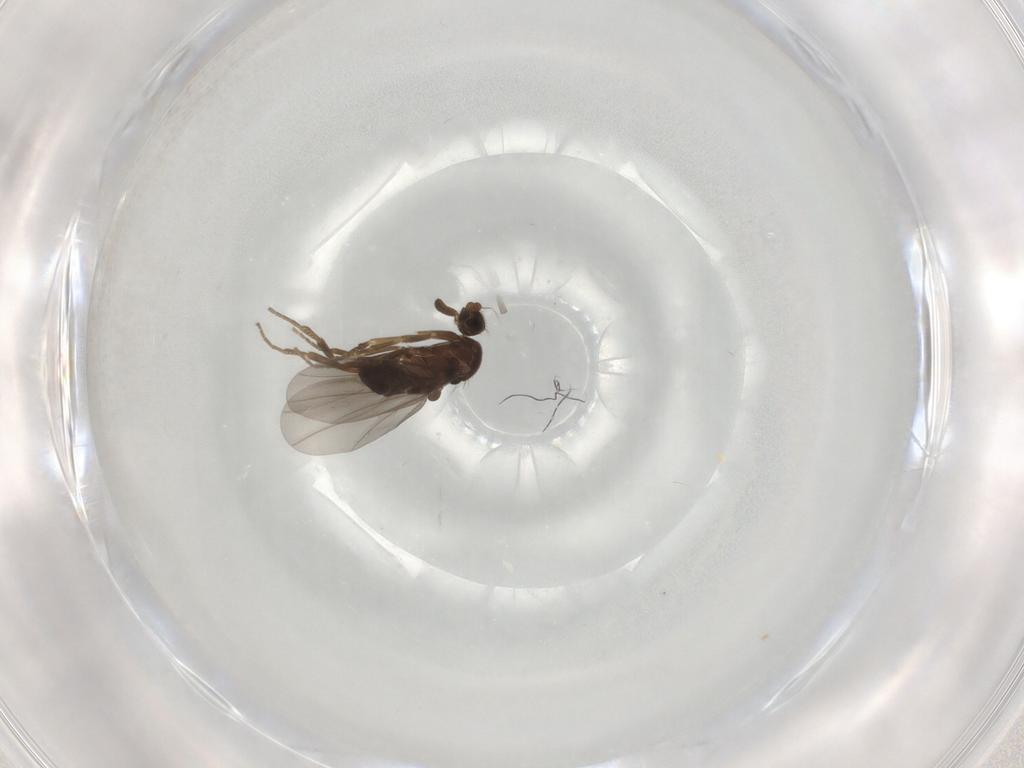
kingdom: Animalia
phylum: Arthropoda
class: Insecta
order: Diptera
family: Sciaridae
